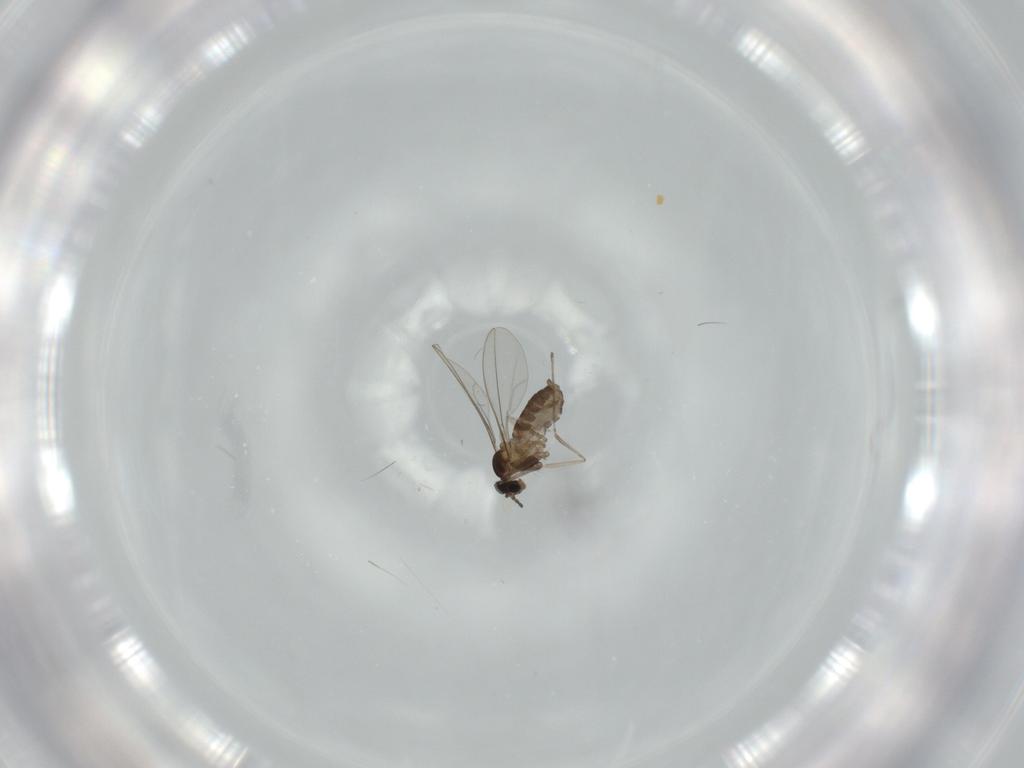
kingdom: Animalia
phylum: Arthropoda
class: Insecta
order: Diptera
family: Cecidomyiidae
